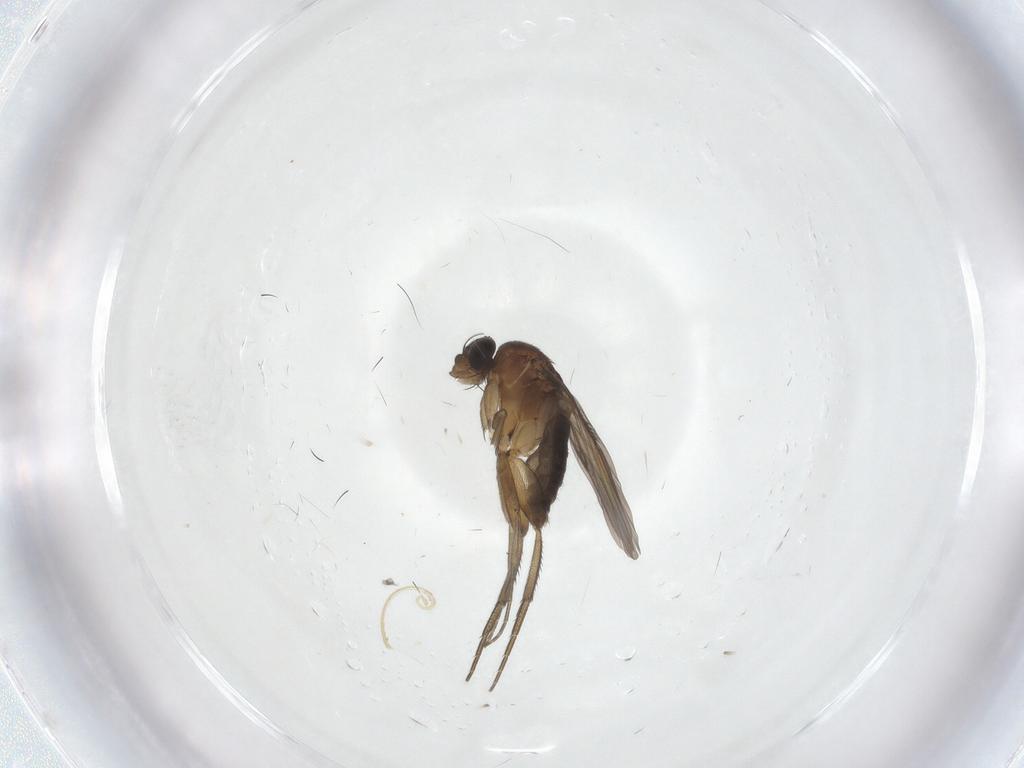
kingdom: Animalia
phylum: Arthropoda
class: Insecta
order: Diptera
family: Phoridae
